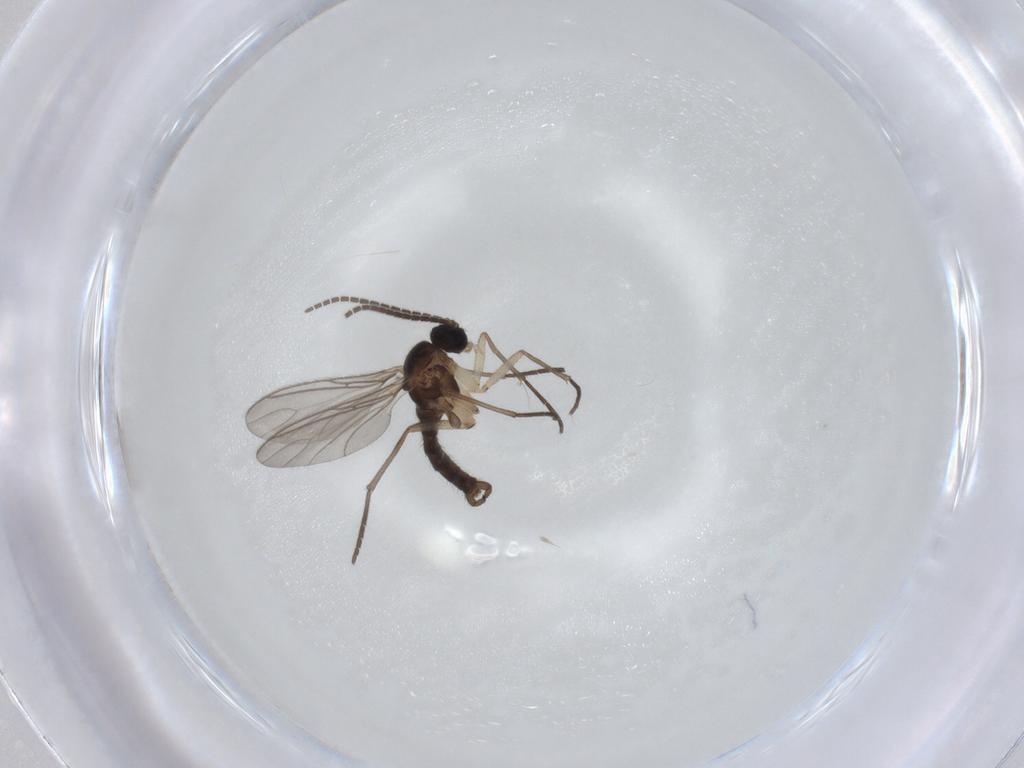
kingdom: Animalia
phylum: Arthropoda
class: Insecta
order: Diptera
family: Sciaridae
